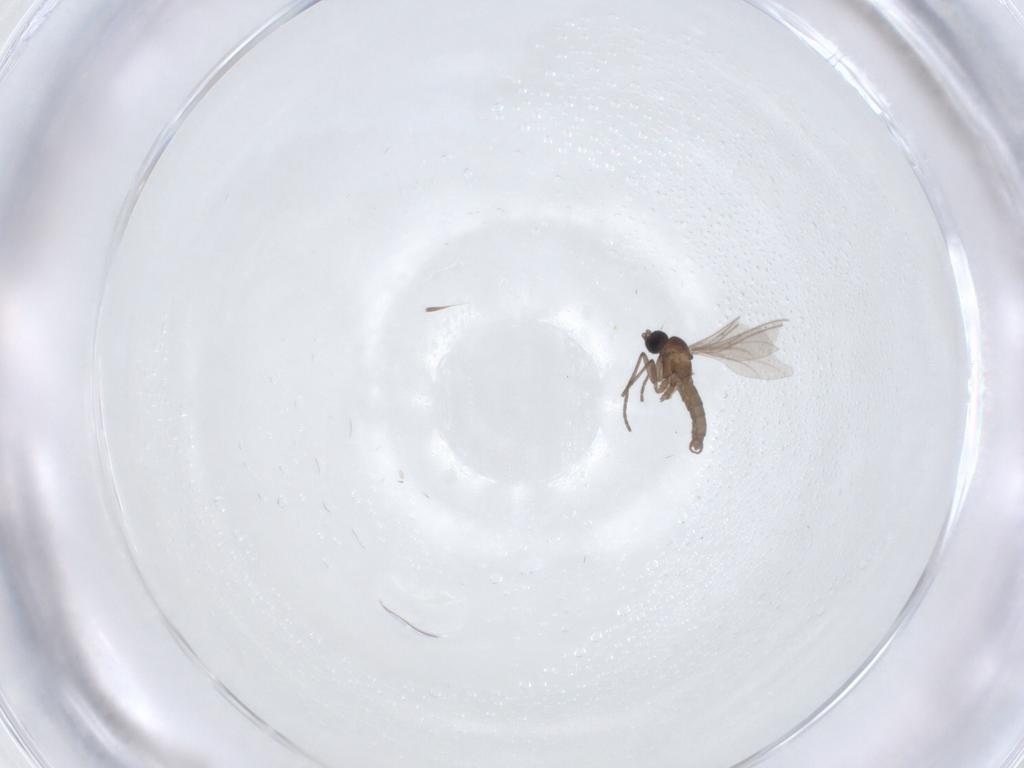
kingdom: Animalia
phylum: Arthropoda
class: Insecta
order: Diptera
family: Sciaridae
